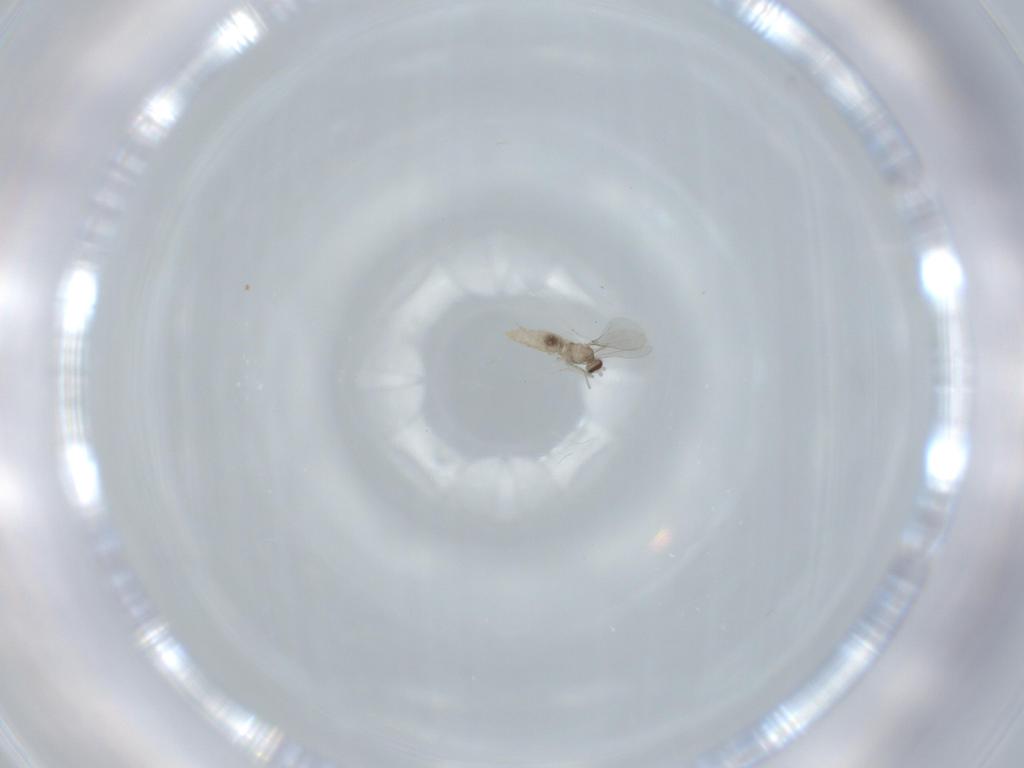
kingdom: Animalia
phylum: Arthropoda
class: Insecta
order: Diptera
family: Cecidomyiidae
